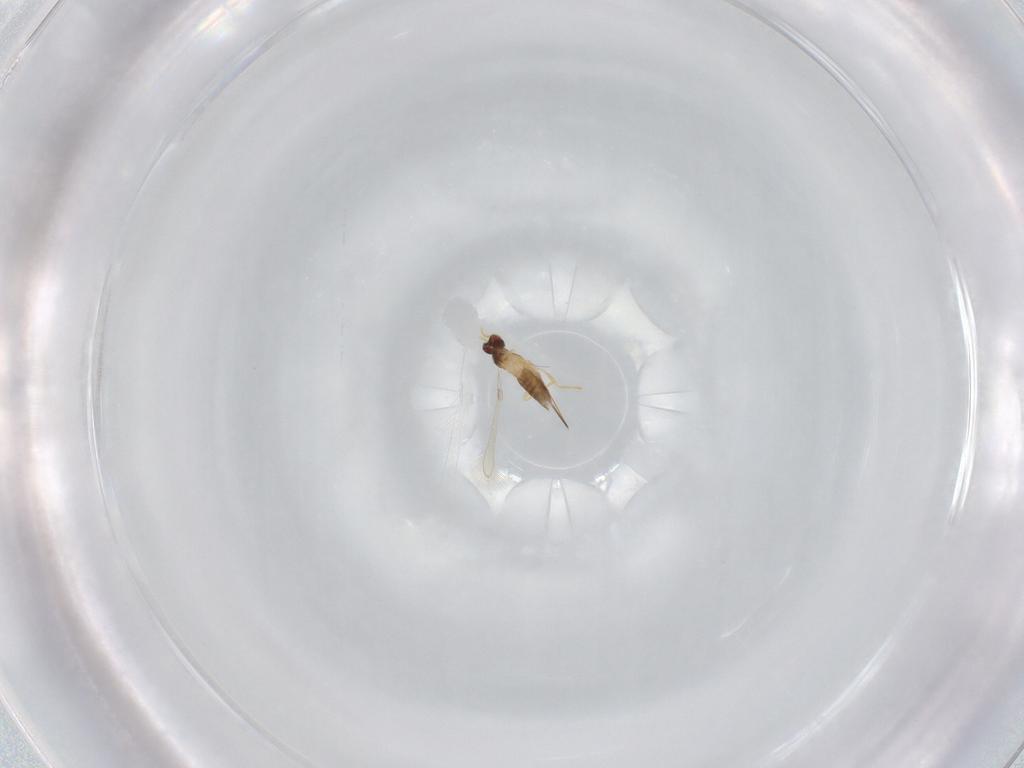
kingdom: Animalia
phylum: Arthropoda
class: Insecta
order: Hymenoptera
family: Mymaridae
